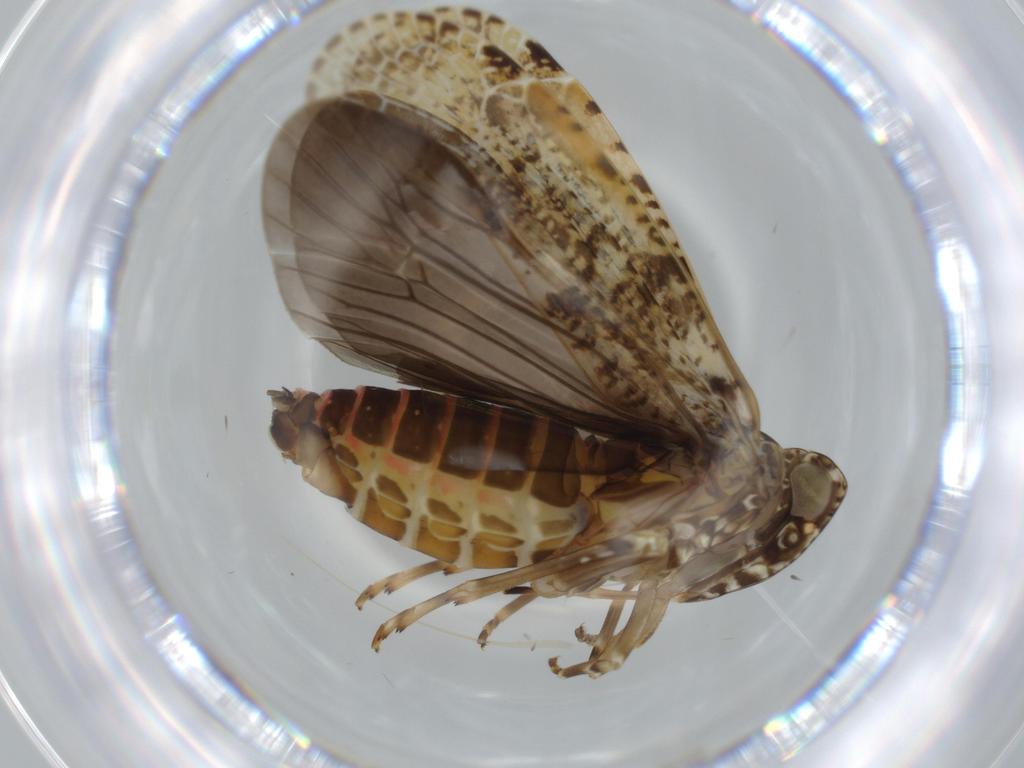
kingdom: Animalia
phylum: Arthropoda
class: Insecta
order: Hemiptera
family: Achilidae
